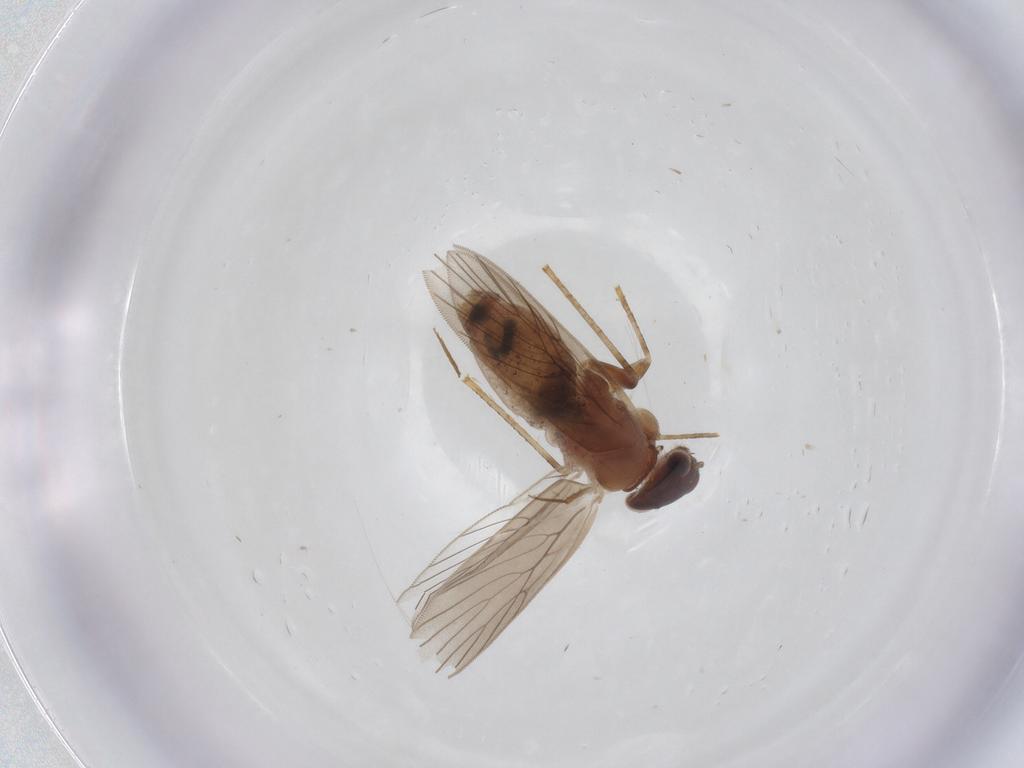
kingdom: Animalia
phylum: Arthropoda
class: Insecta
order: Psocodea
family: Lepidopsocidae
